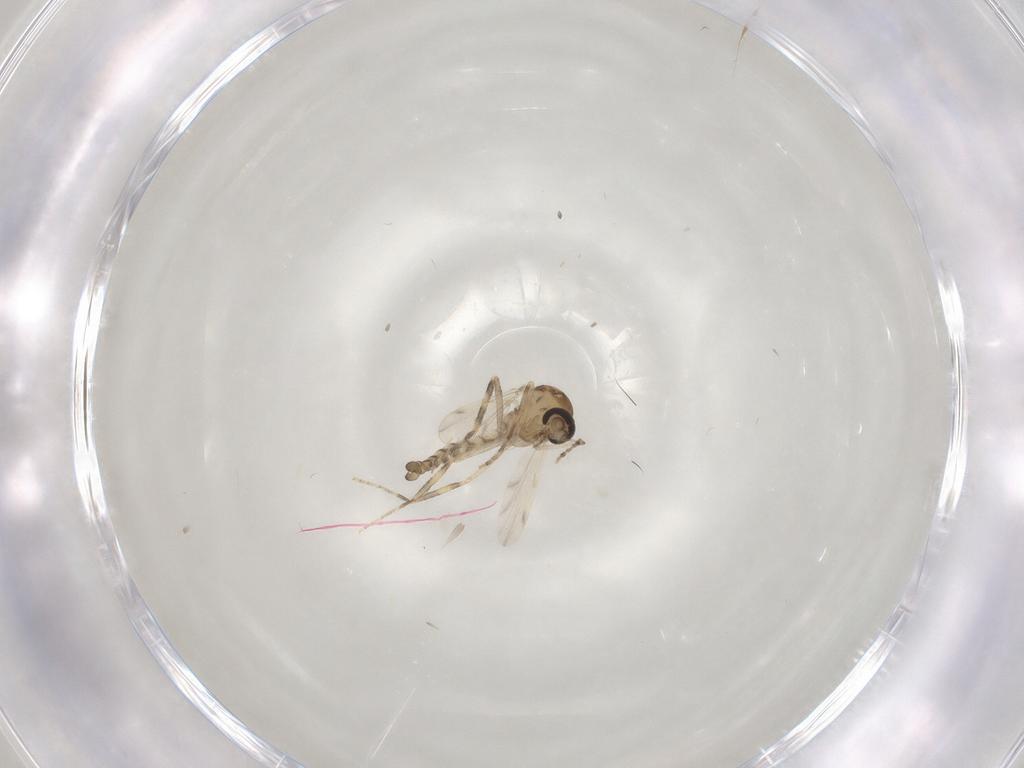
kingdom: Animalia
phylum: Arthropoda
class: Insecta
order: Diptera
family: Ceratopogonidae
